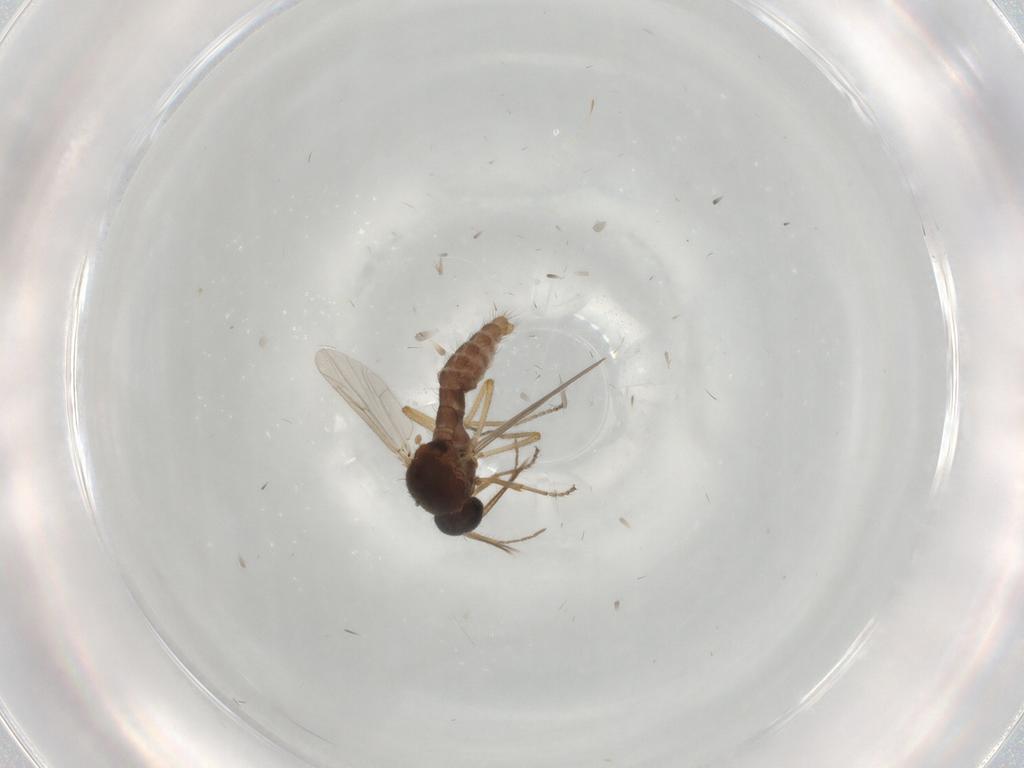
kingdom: Animalia
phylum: Arthropoda
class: Insecta
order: Diptera
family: Ceratopogonidae
